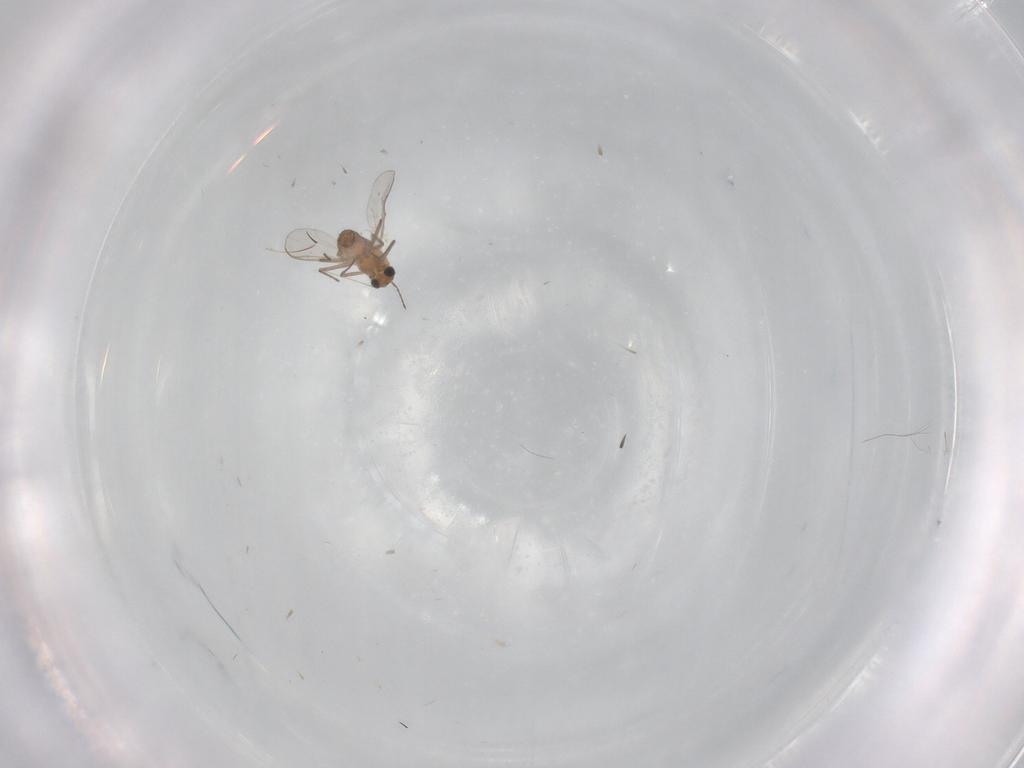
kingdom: Animalia
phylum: Arthropoda
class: Insecta
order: Diptera
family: Sciaridae
